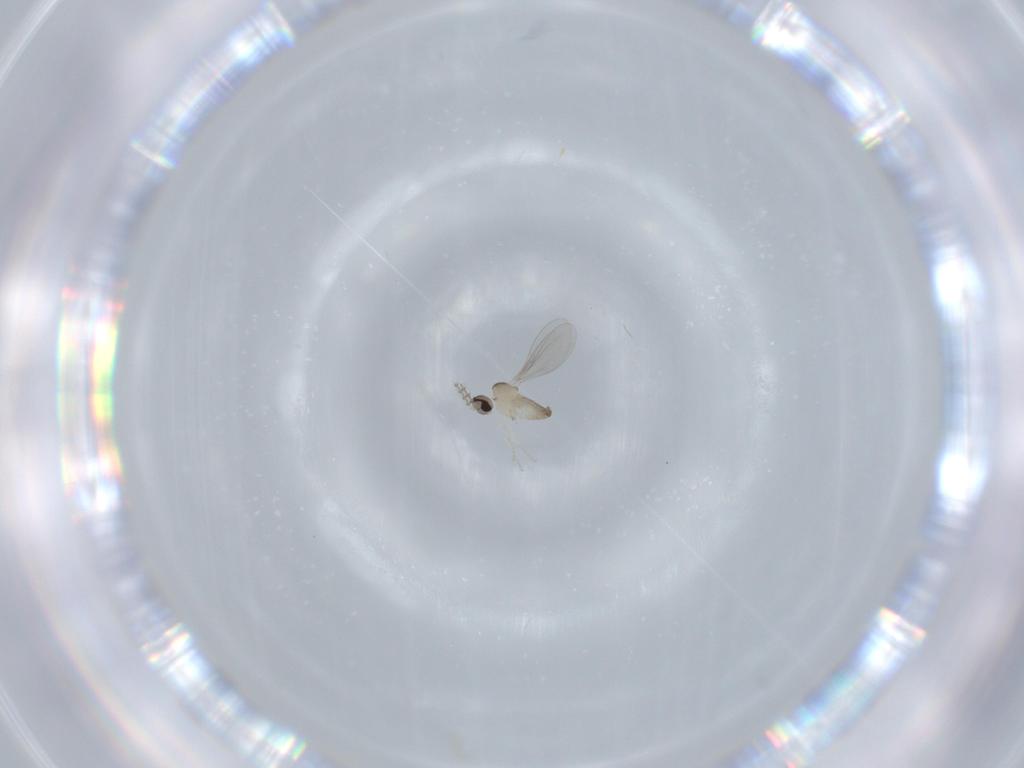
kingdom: Animalia
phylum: Arthropoda
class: Insecta
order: Diptera
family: Cecidomyiidae
